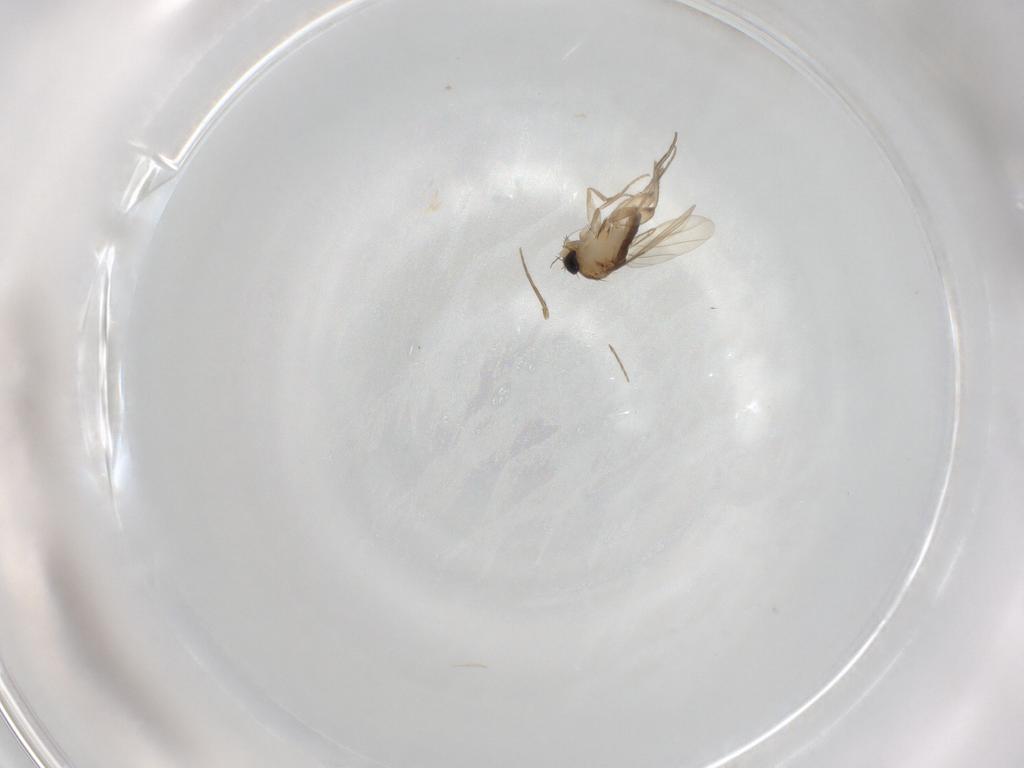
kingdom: Animalia
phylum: Arthropoda
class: Insecta
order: Diptera
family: Phoridae
